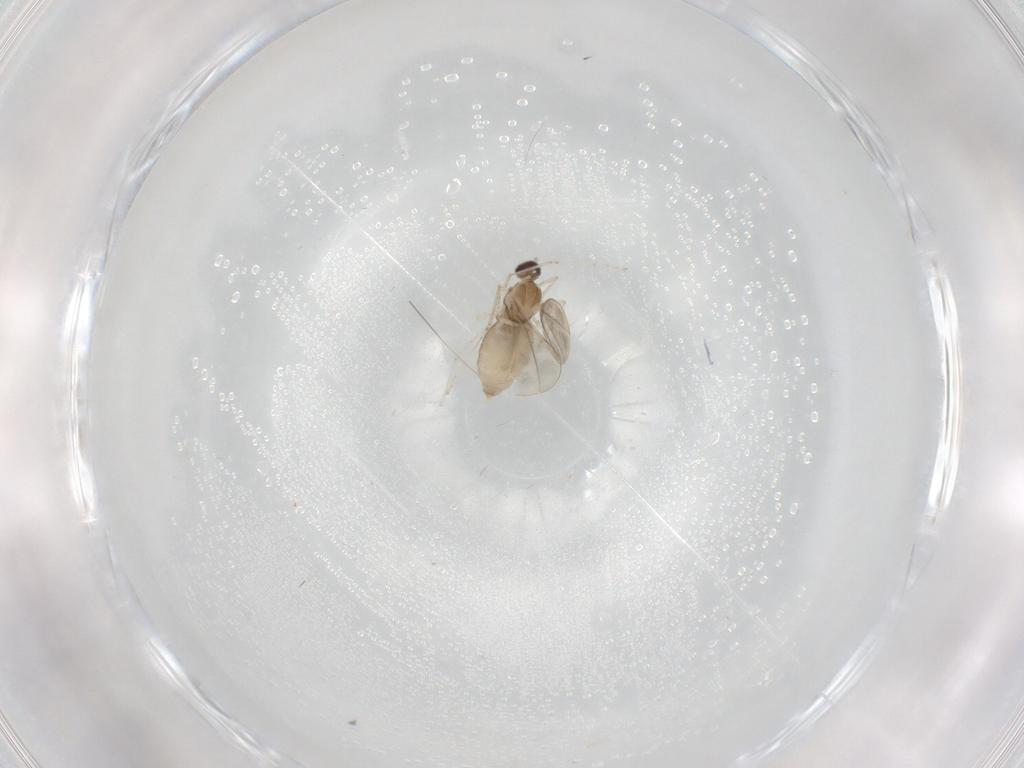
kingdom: Animalia
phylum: Arthropoda
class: Insecta
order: Diptera
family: Cecidomyiidae
